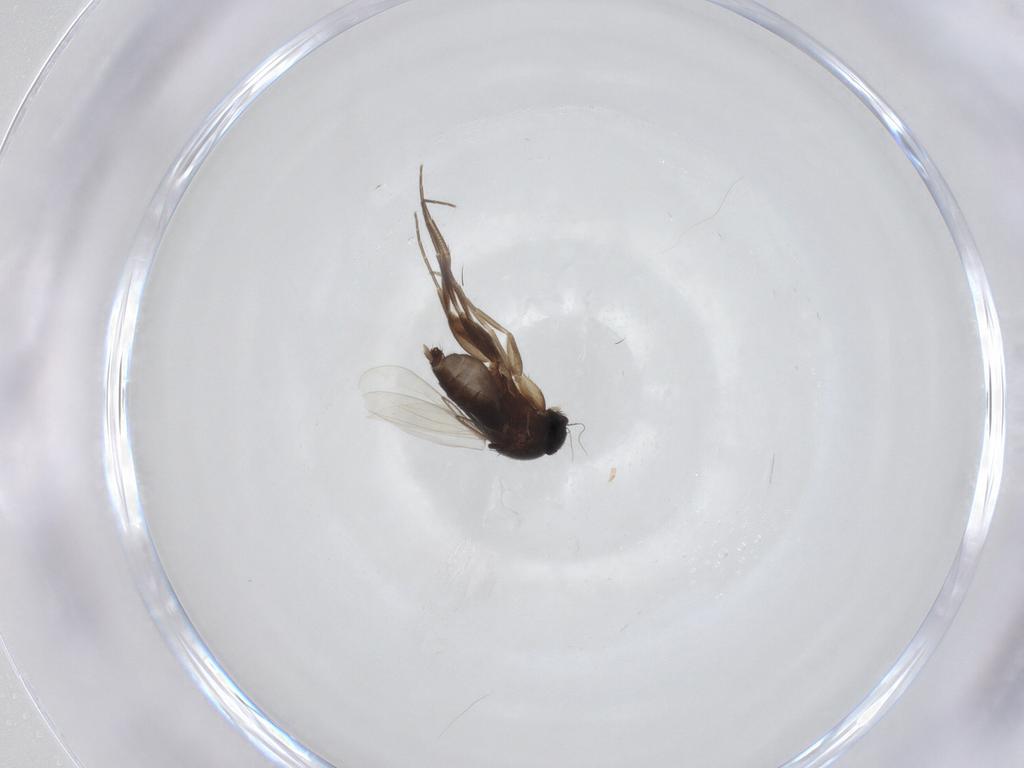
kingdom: Animalia
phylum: Arthropoda
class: Insecta
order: Diptera
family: Phoridae
